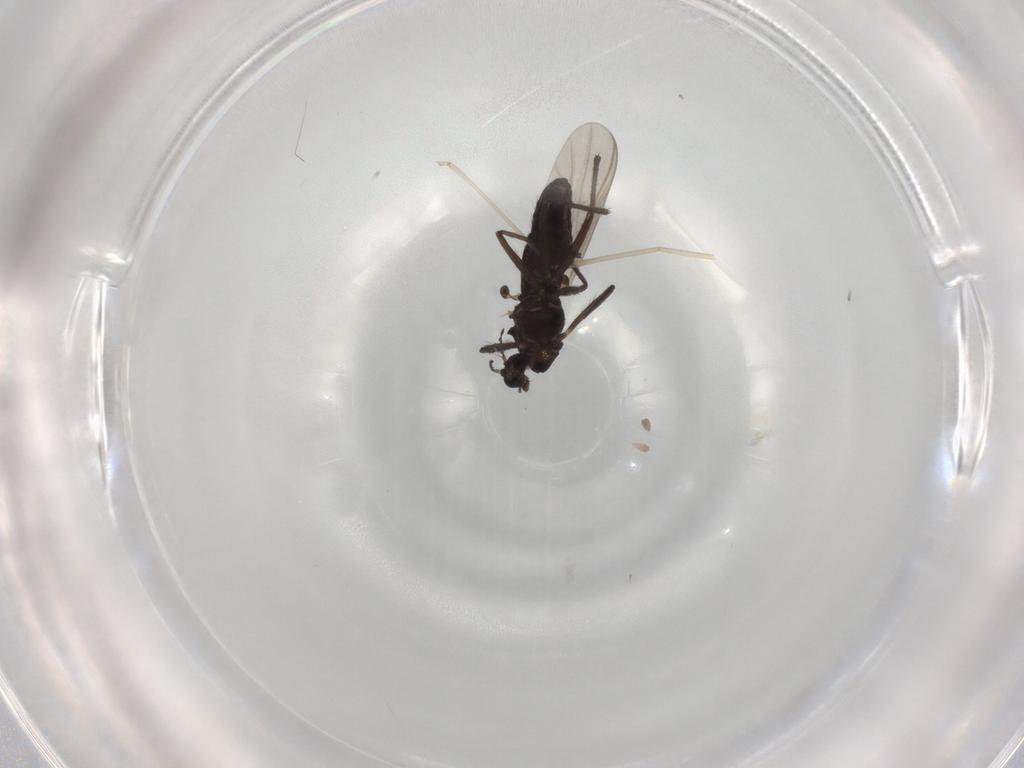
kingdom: Animalia
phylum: Arthropoda
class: Insecta
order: Diptera
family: Chironomidae
